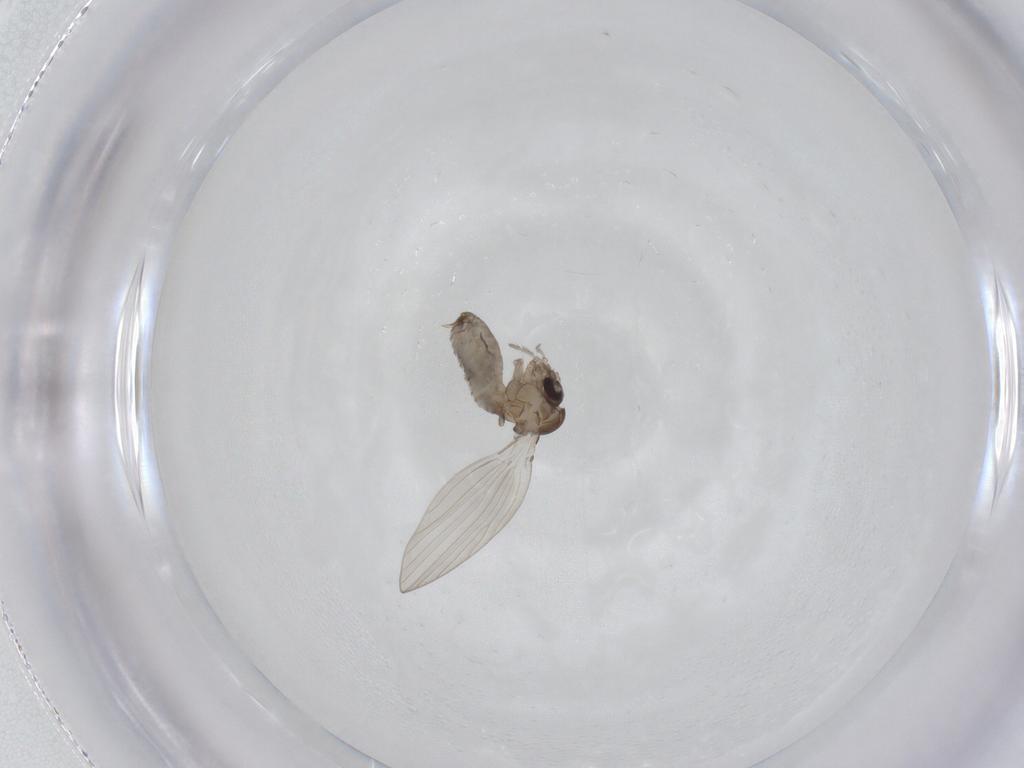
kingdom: Animalia
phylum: Arthropoda
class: Insecta
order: Diptera
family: Psychodidae
